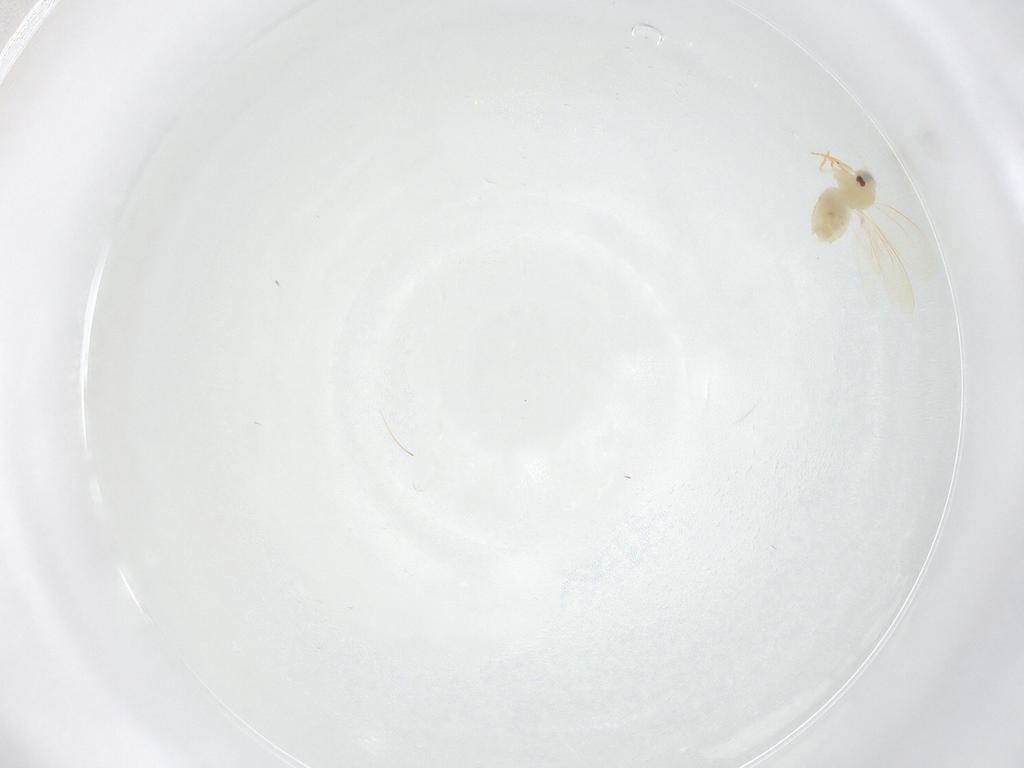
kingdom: Animalia
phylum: Arthropoda
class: Insecta
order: Hemiptera
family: Aleyrodidae
